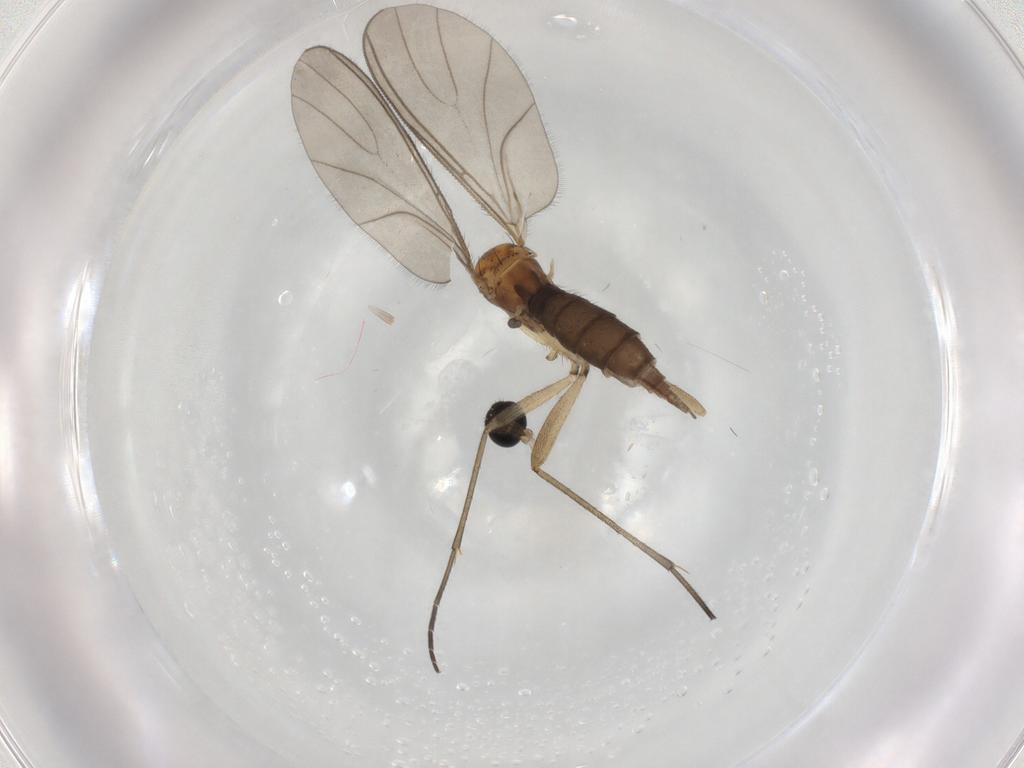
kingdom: Animalia
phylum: Arthropoda
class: Insecta
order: Diptera
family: Sciaridae
